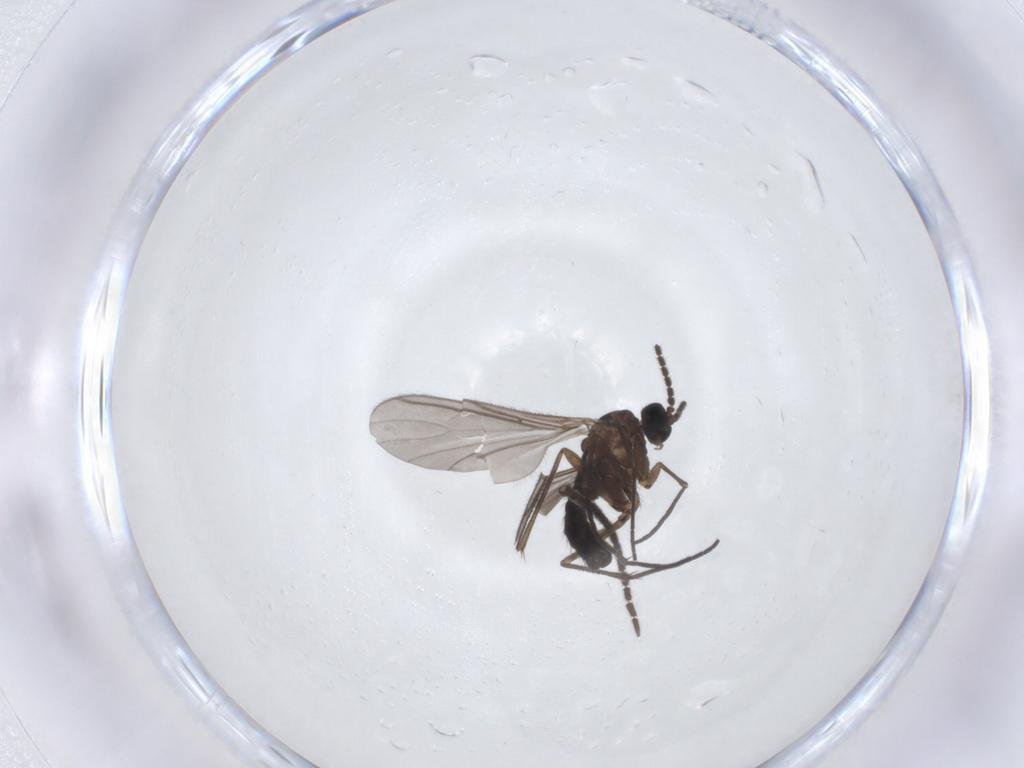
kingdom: Animalia
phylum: Arthropoda
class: Insecta
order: Diptera
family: Sciaridae
